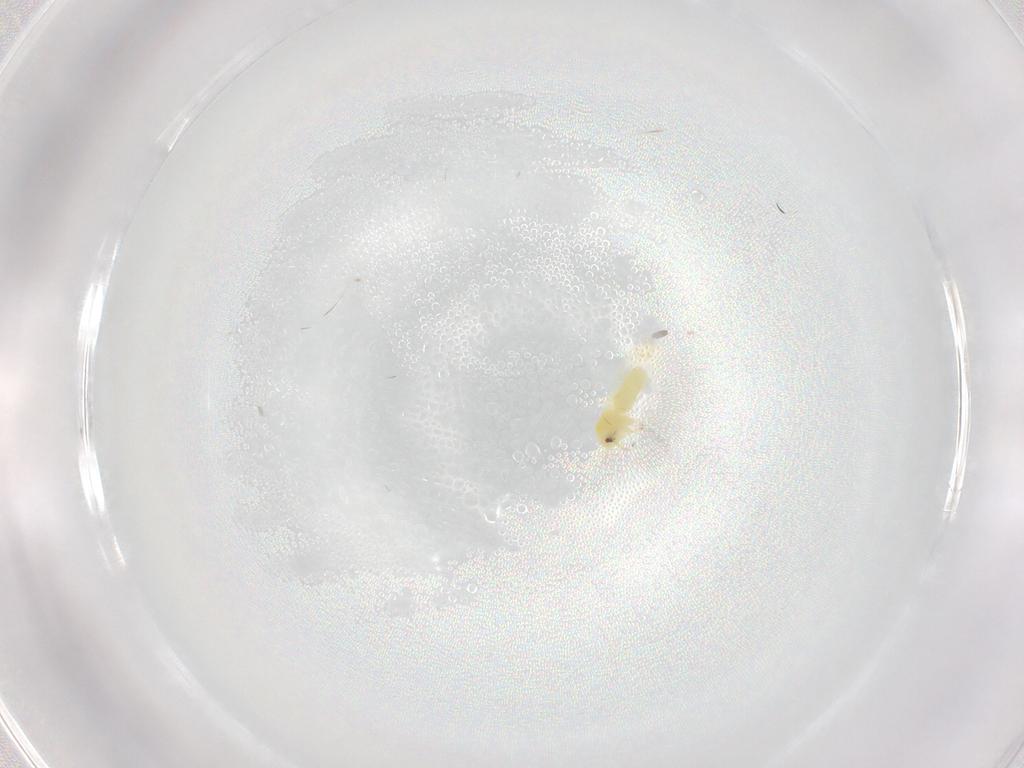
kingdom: Animalia
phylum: Arthropoda
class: Insecta
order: Hemiptera
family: Aleyrodidae
